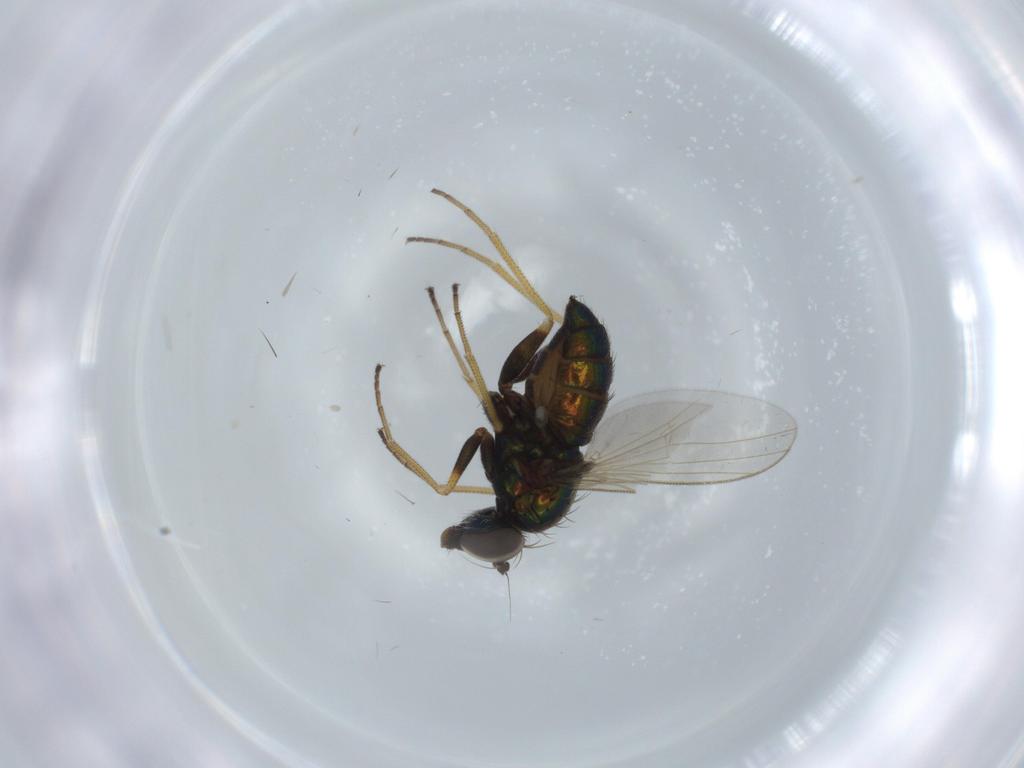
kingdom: Animalia
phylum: Arthropoda
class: Insecta
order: Diptera
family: Dolichopodidae
